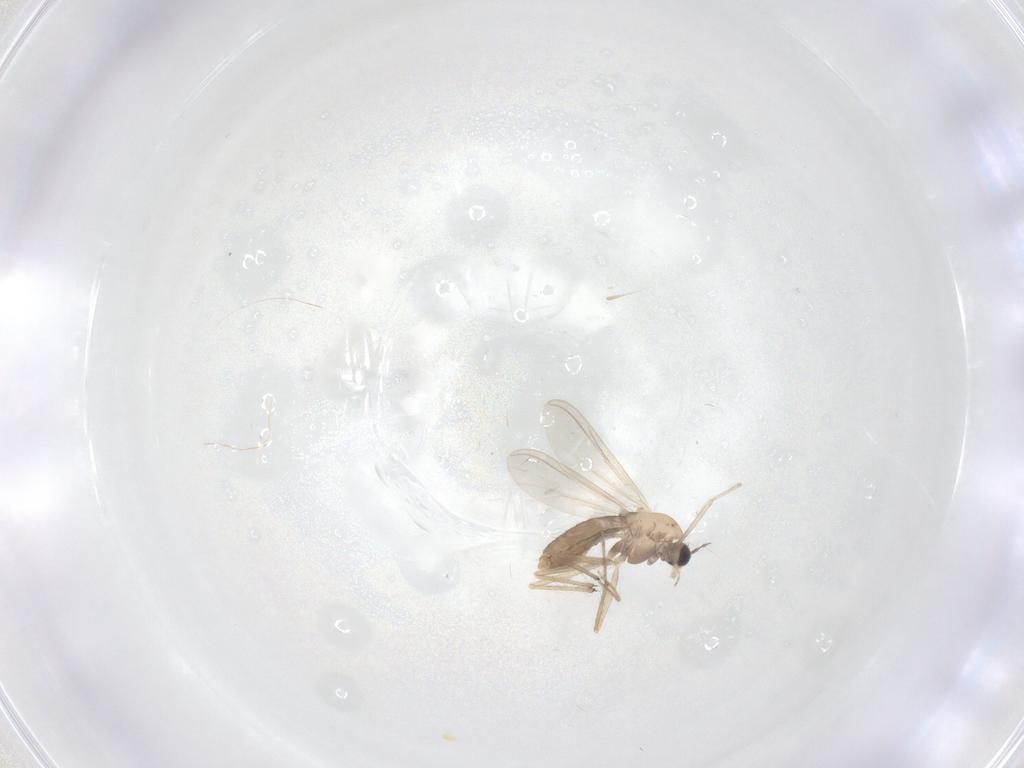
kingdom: Animalia
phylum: Arthropoda
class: Insecta
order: Diptera
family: Chironomidae
